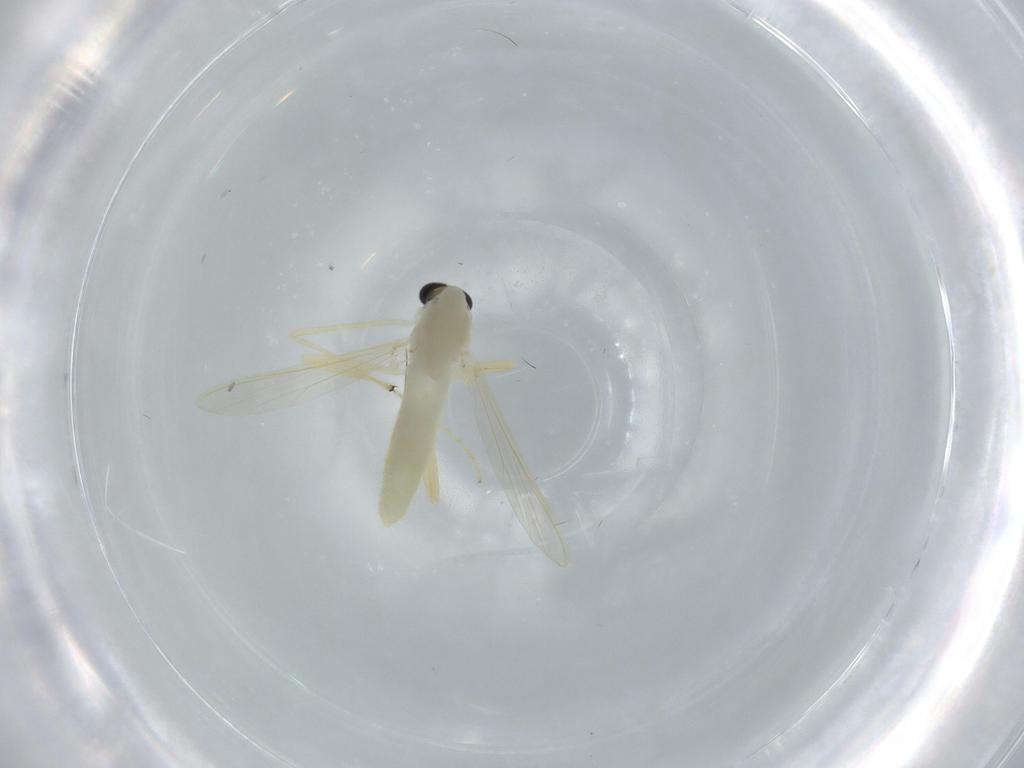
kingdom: Animalia
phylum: Arthropoda
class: Insecta
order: Diptera
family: Chironomidae
